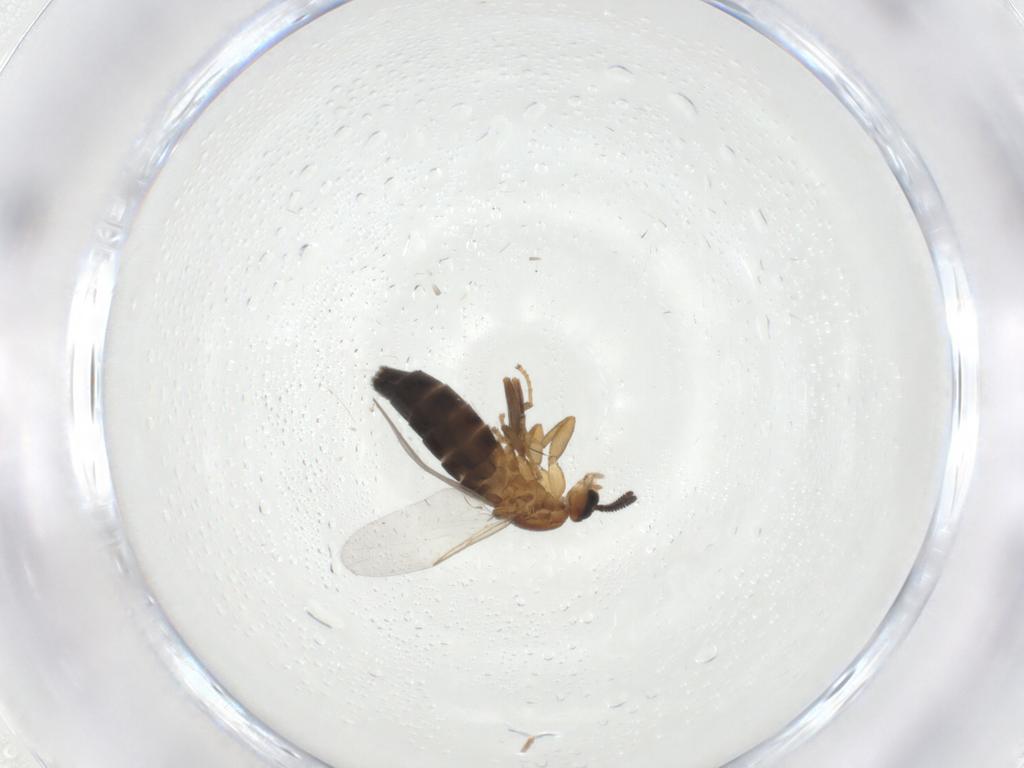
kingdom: Animalia
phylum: Arthropoda
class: Insecta
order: Diptera
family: Scatopsidae
